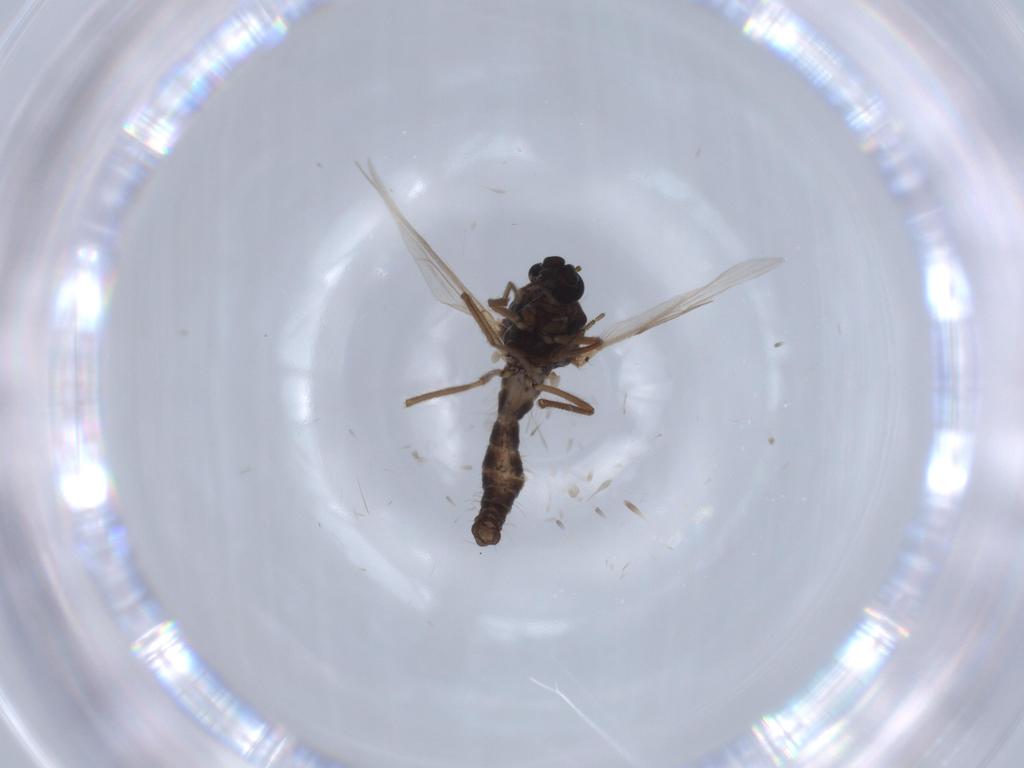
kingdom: Animalia
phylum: Arthropoda
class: Insecta
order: Diptera
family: Ceratopogonidae
